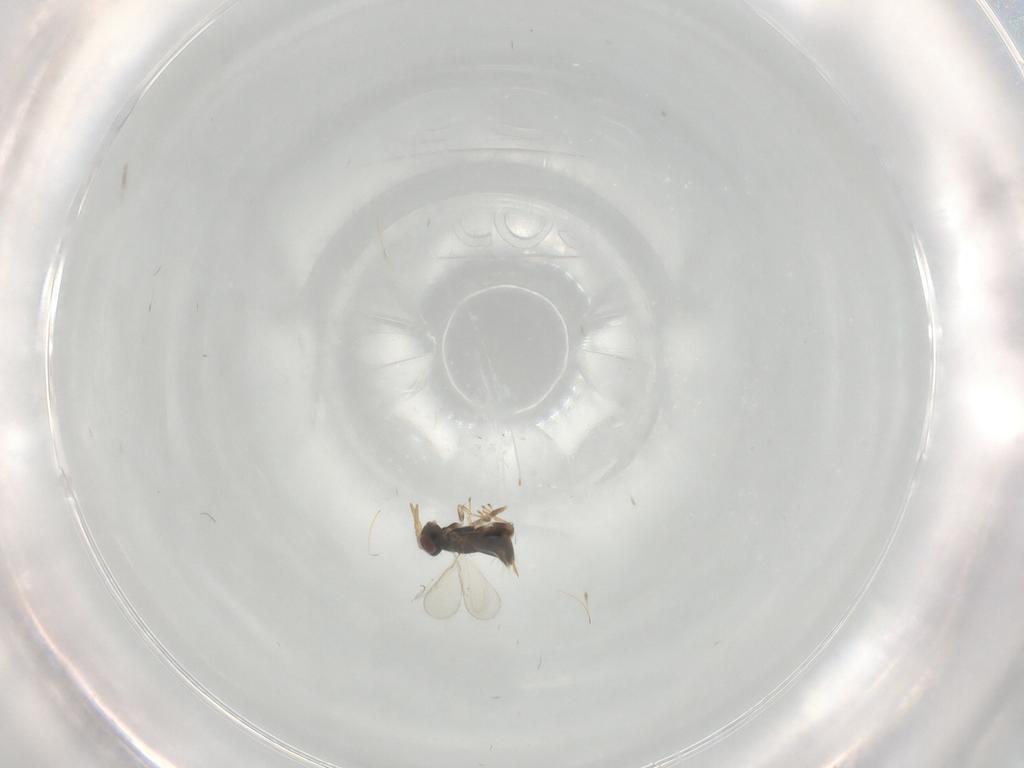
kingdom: Animalia
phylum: Arthropoda
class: Insecta
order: Hymenoptera
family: Aphelinidae
